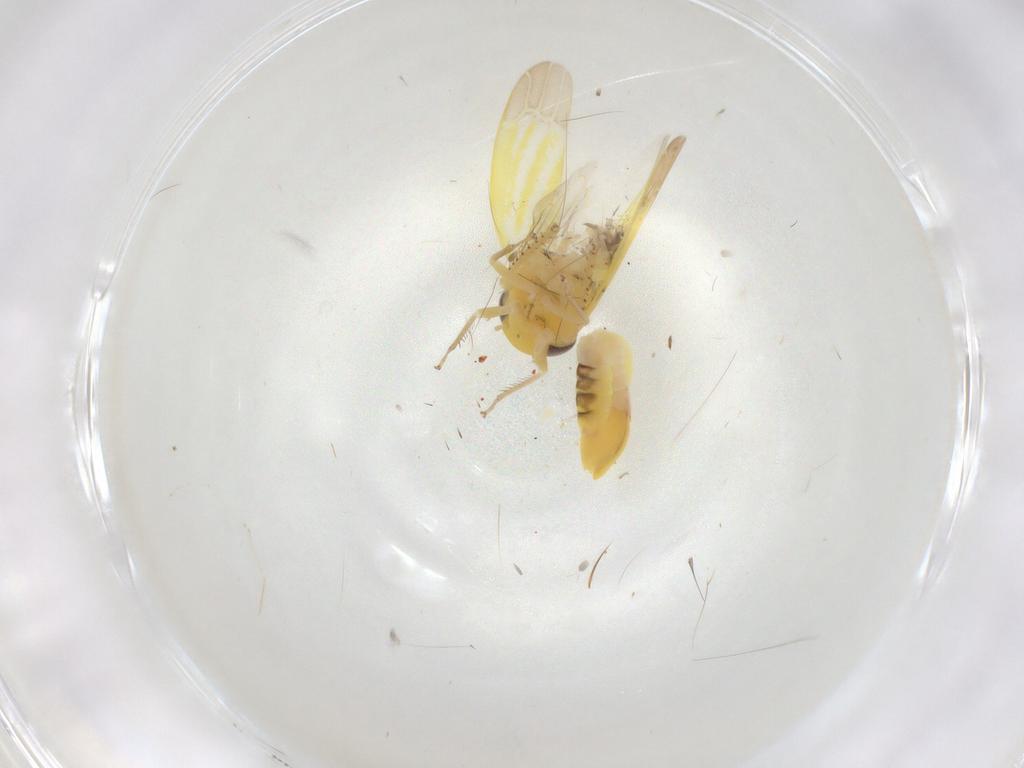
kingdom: Animalia
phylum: Arthropoda
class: Insecta
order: Hemiptera
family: Cicadellidae
